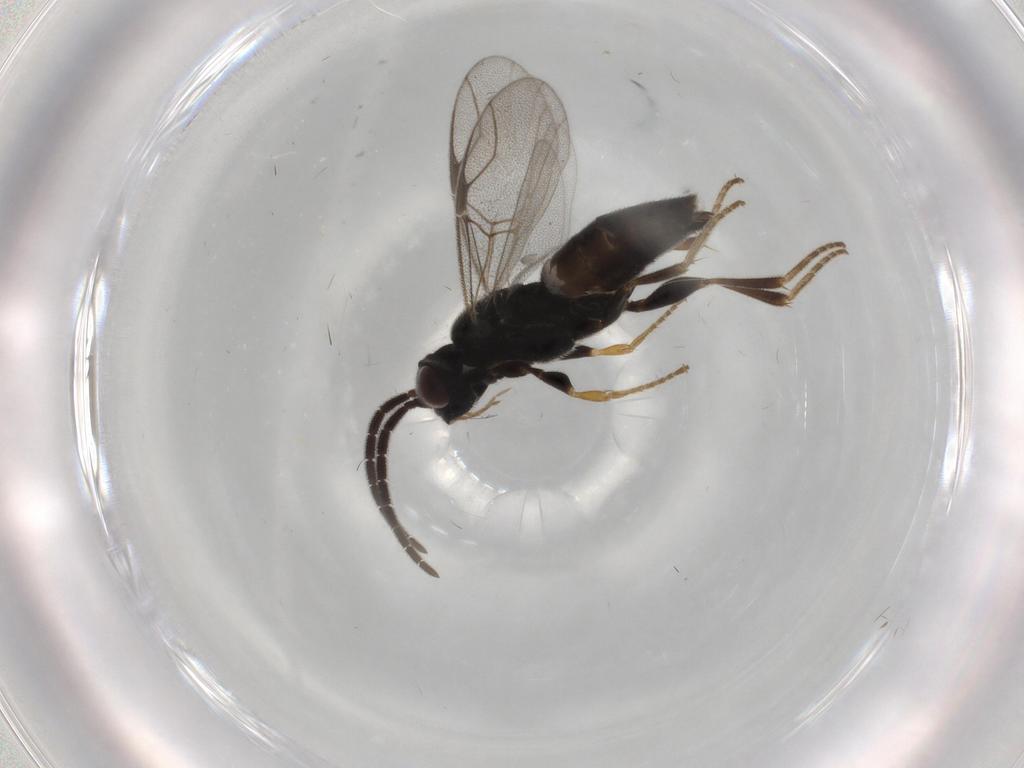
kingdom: Animalia
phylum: Arthropoda
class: Insecta
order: Hymenoptera
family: Dryinidae
